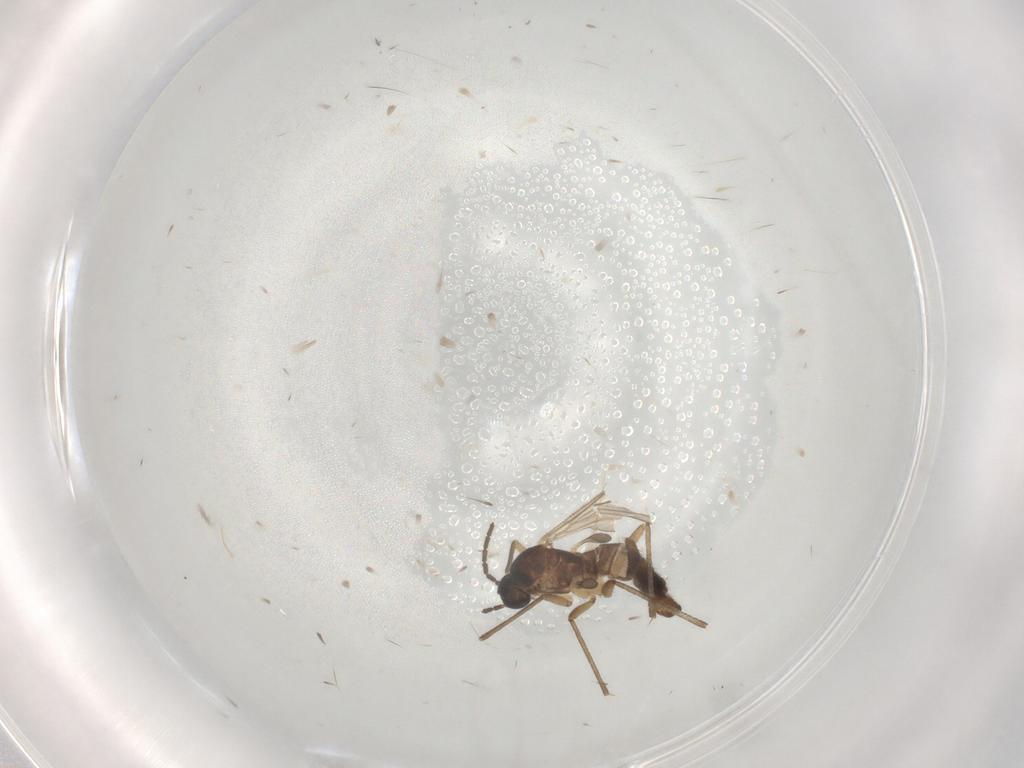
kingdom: Animalia
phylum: Arthropoda
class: Insecta
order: Diptera
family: Sciaridae
